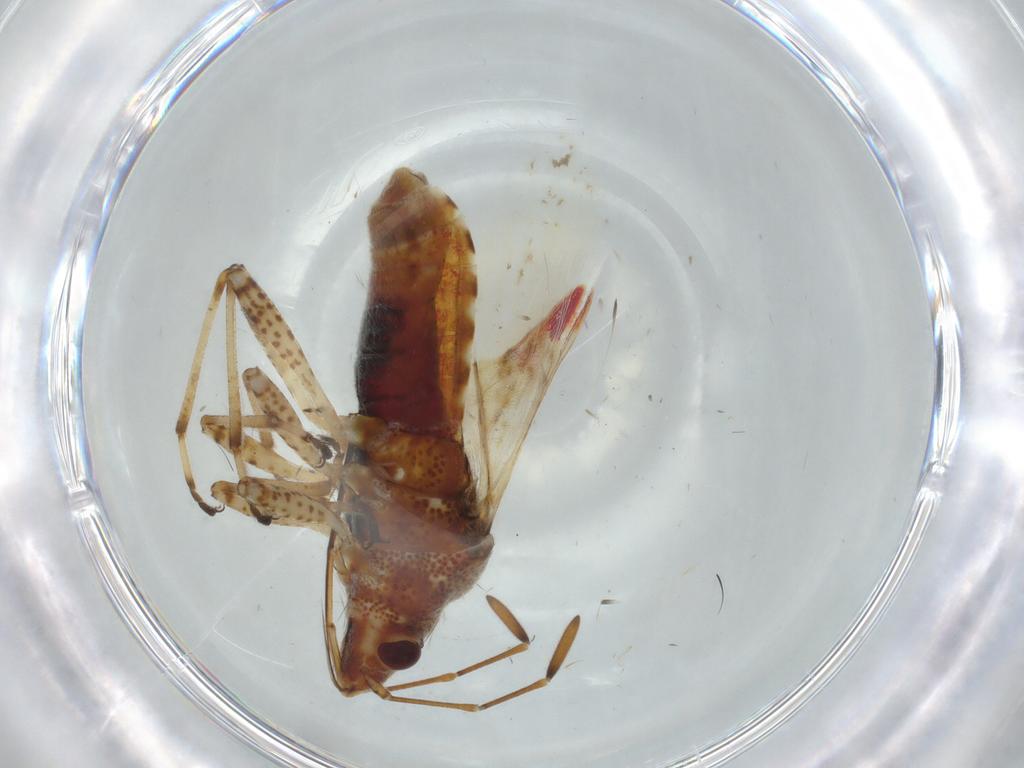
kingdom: Animalia
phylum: Arthropoda
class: Insecta
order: Hemiptera
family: Lygaeidae
